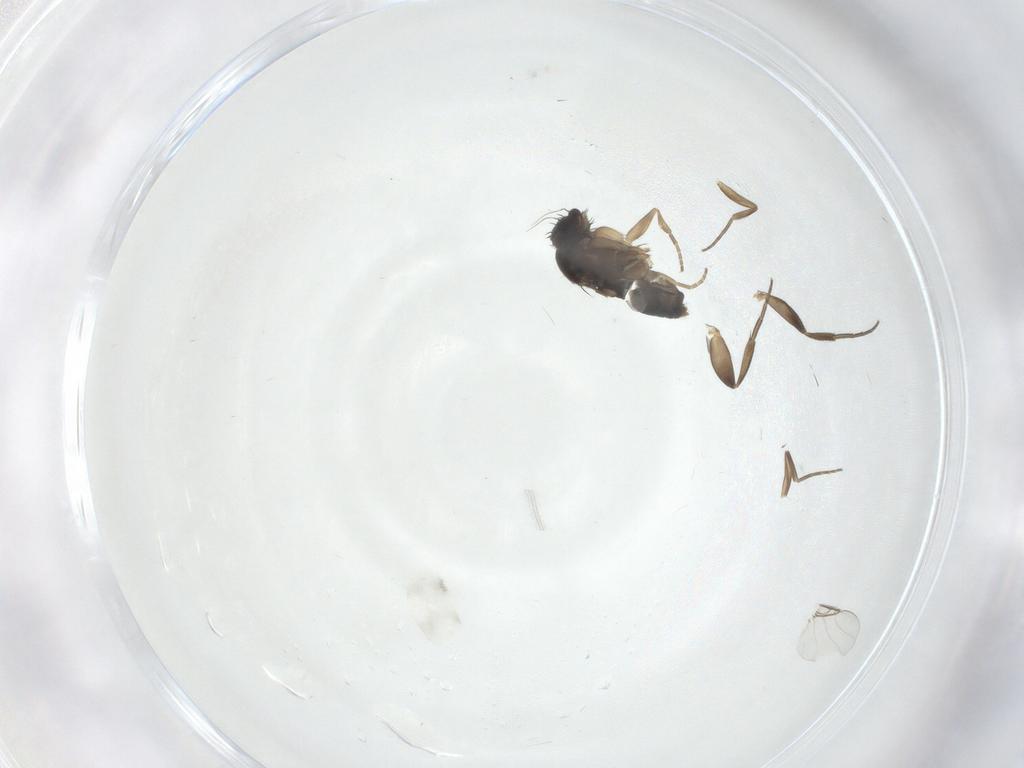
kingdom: Animalia
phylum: Arthropoda
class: Insecta
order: Diptera
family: Phoridae
